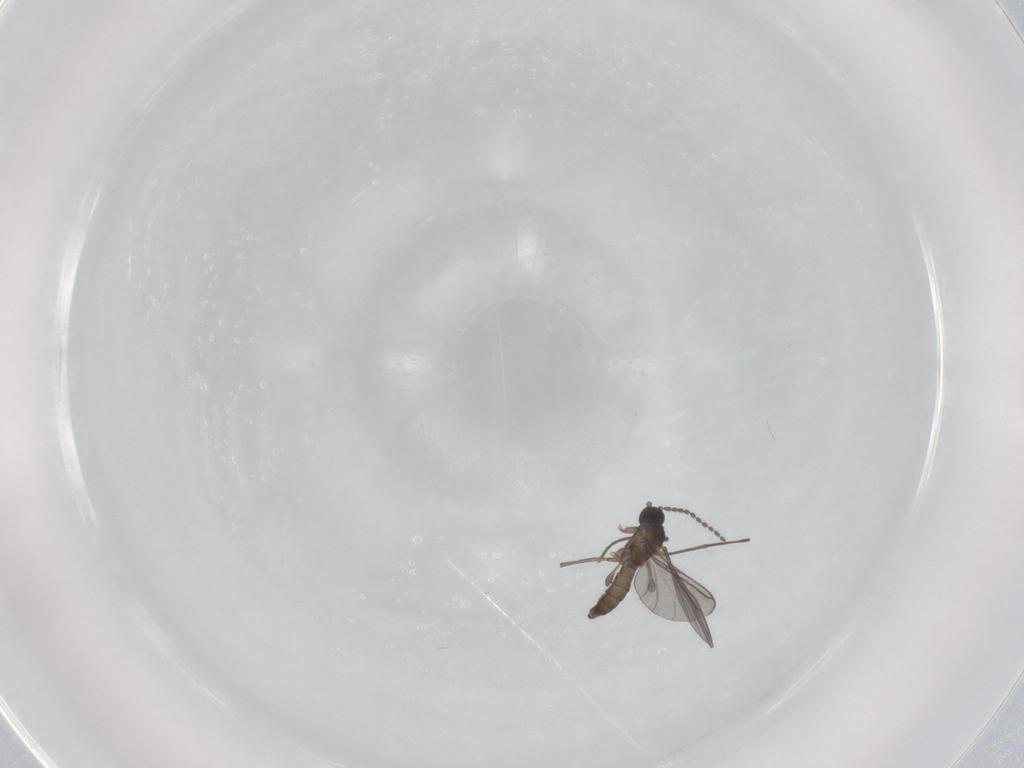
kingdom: Animalia
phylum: Arthropoda
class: Insecta
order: Diptera
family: Sciaridae
